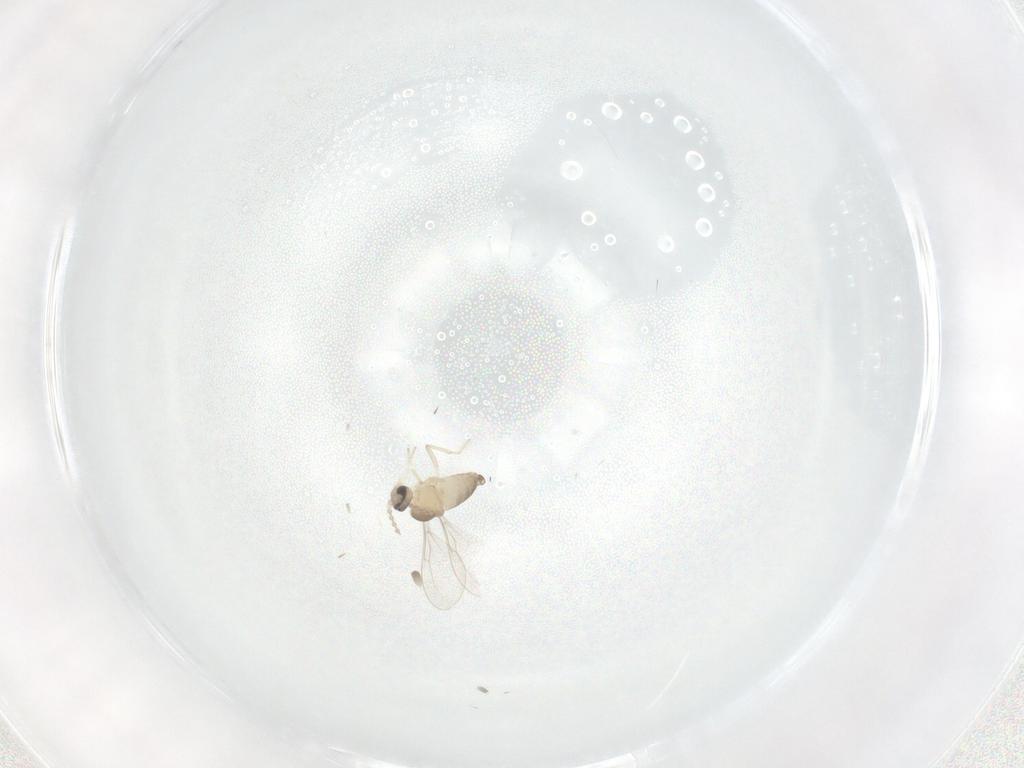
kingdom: Animalia
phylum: Arthropoda
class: Insecta
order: Diptera
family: Cecidomyiidae
